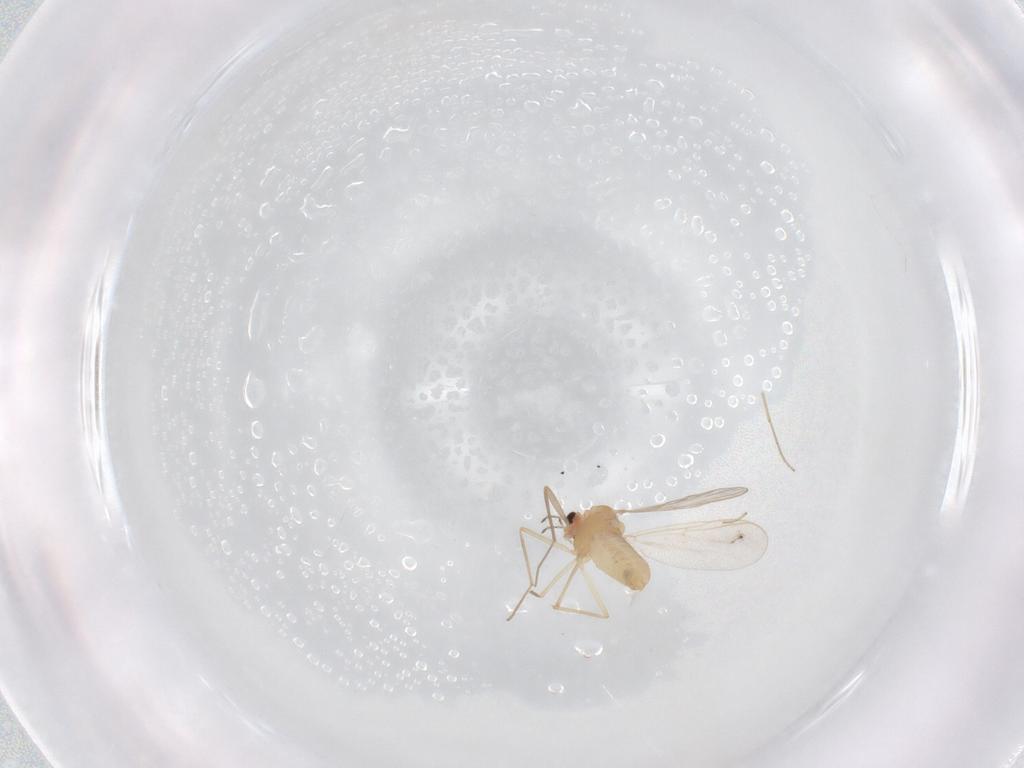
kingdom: Animalia
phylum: Arthropoda
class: Insecta
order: Diptera
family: Chironomidae
